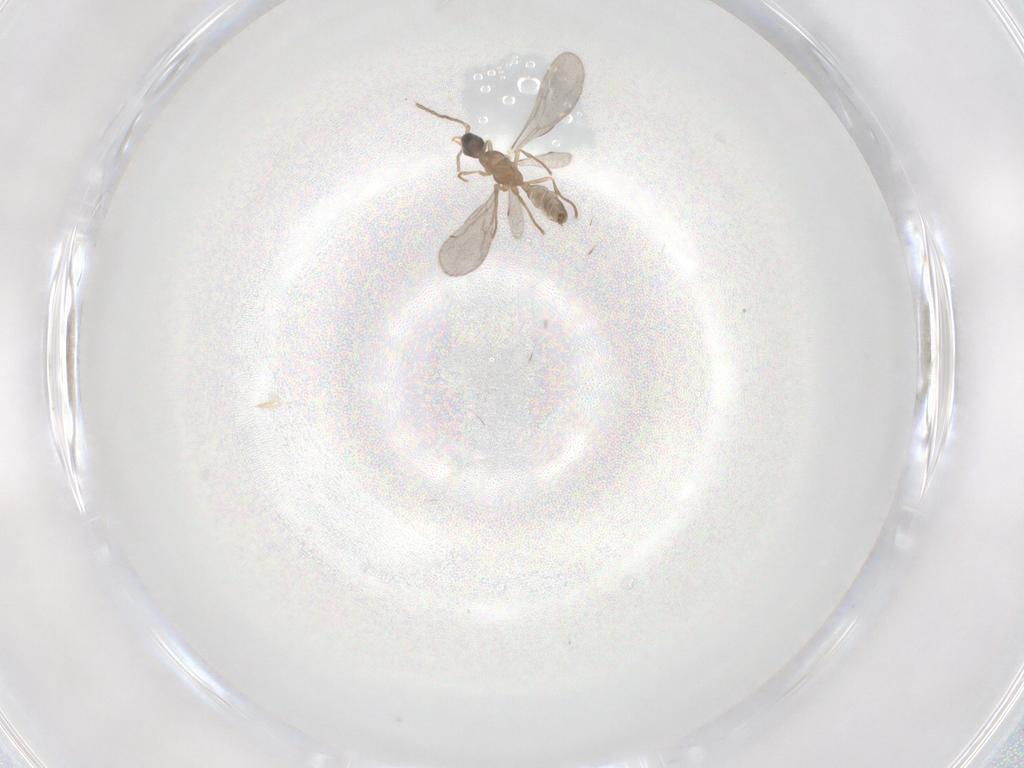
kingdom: Animalia
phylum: Arthropoda
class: Insecta
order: Hymenoptera
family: Formicidae
